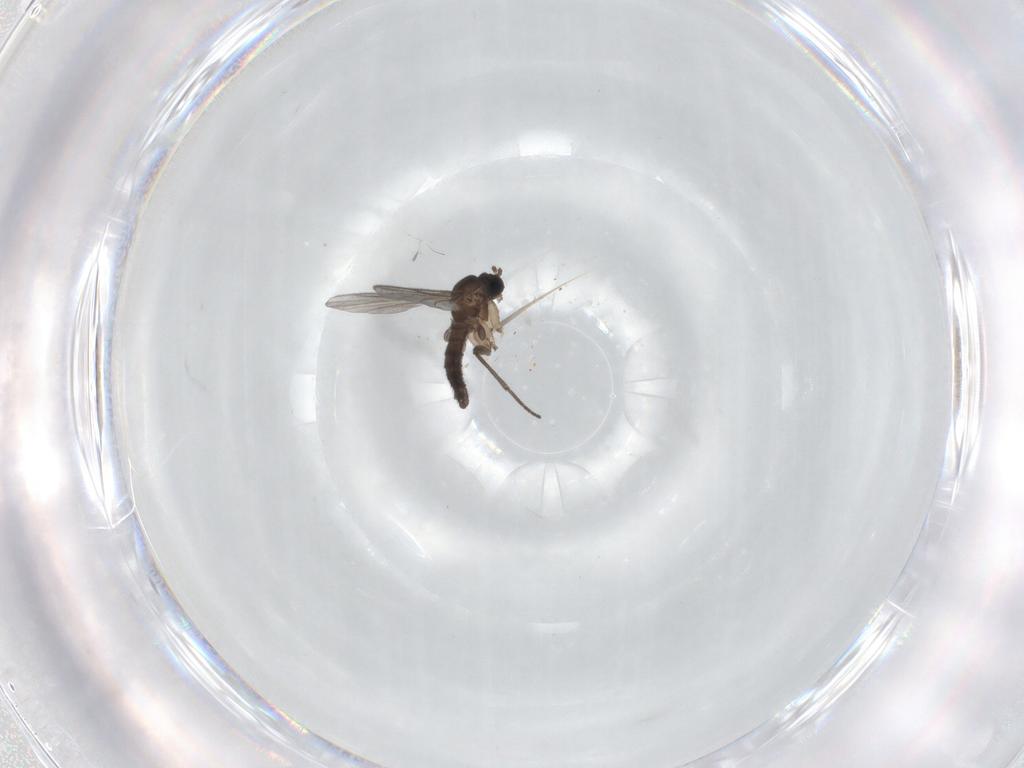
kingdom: Animalia
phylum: Arthropoda
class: Insecta
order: Diptera
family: Sciaridae
